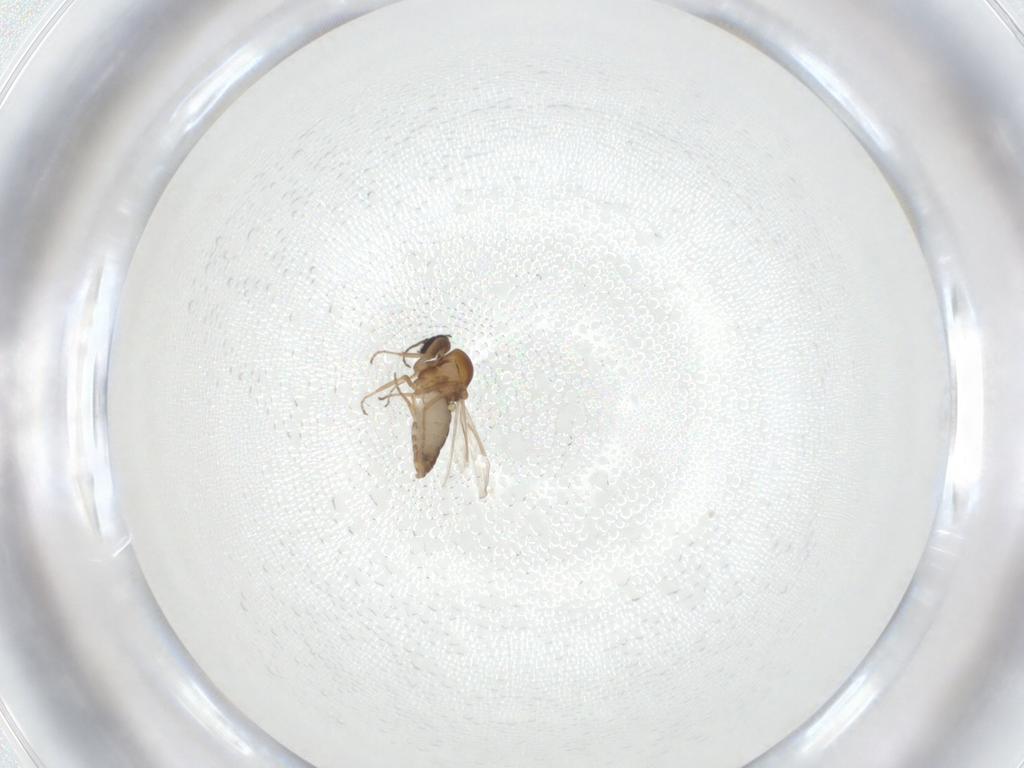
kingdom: Animalia
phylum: Arthropoda
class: Insecta
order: Diptera
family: Ceratopogonidae
